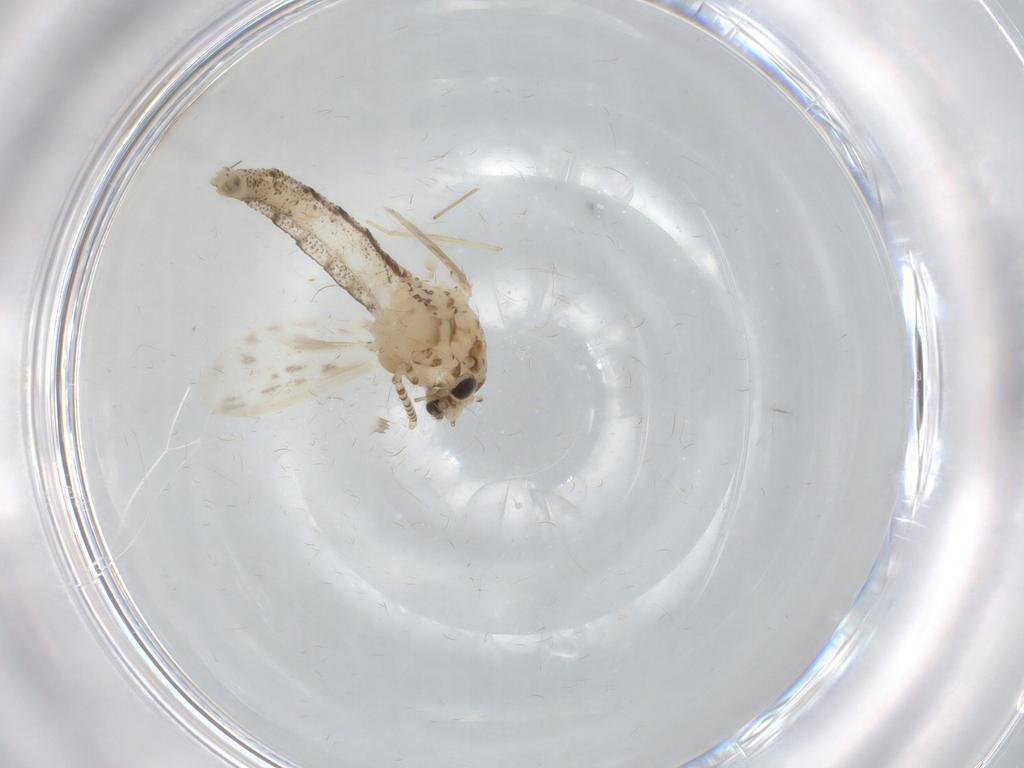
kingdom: Animalia
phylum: Arthropoda
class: Insecta
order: Diptera
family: Chaoboridae
